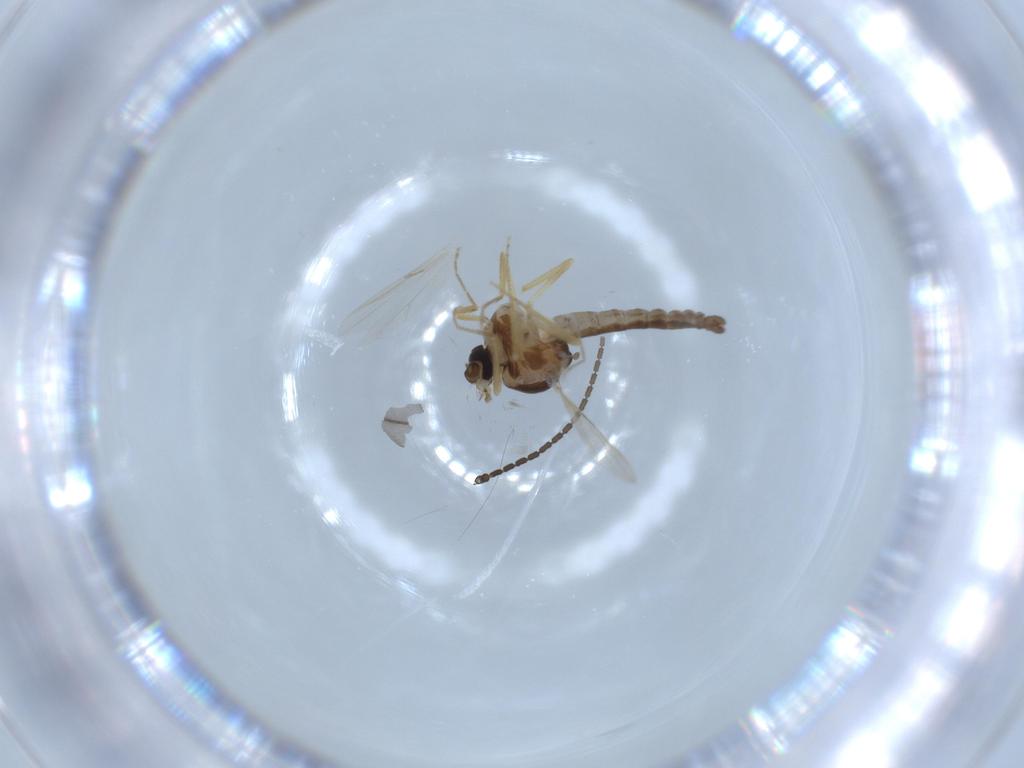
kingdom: Animalia
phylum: Arthropoda
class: Insecta
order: Diptera
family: Ceratopogonidae
